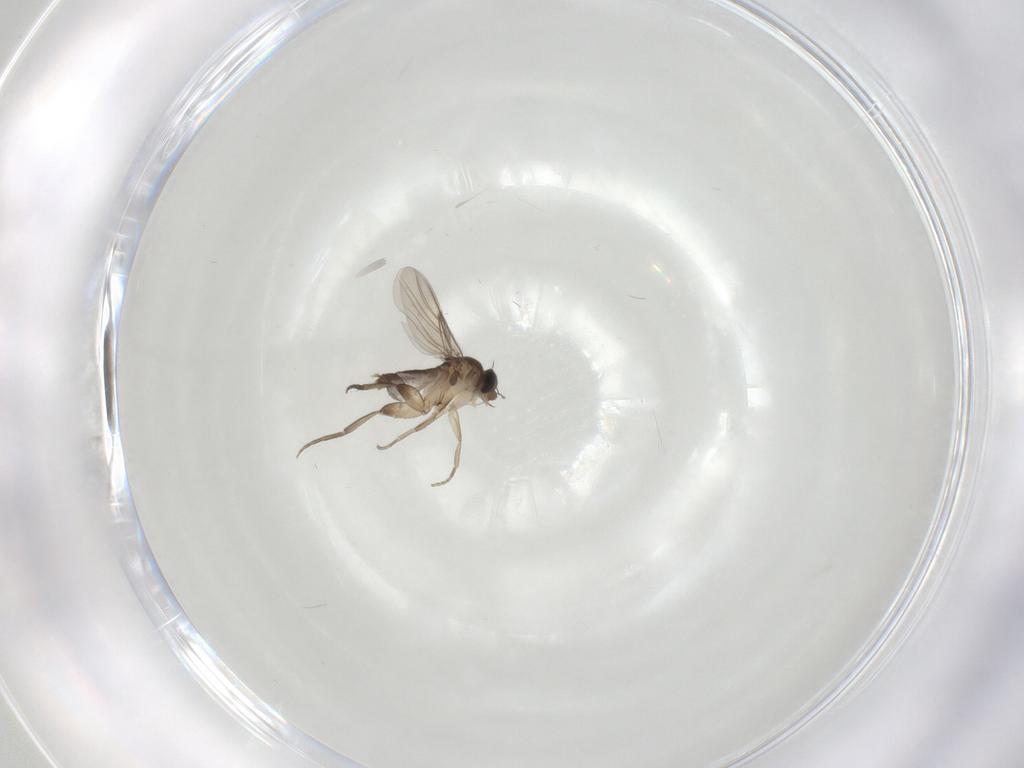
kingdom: Animalia
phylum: Arthropoda
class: Insecta
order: Diptera
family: Phoridae
